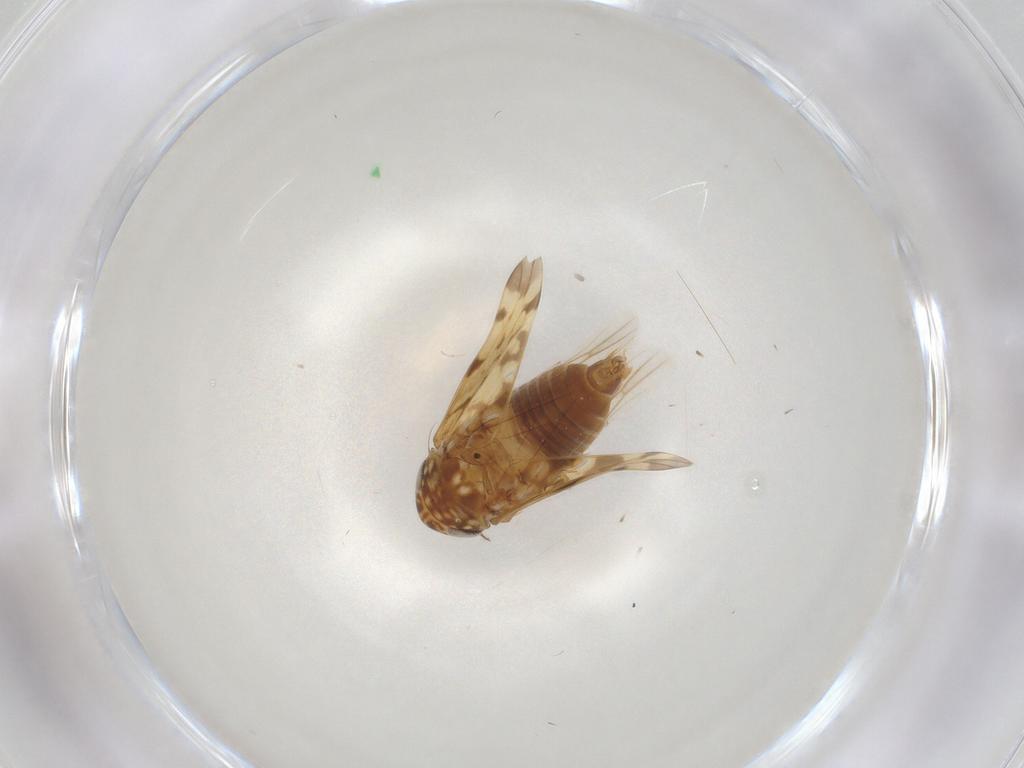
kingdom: Animalia
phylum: Arthropoda
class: Insecta
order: Hemiptera
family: Cicadellidae
